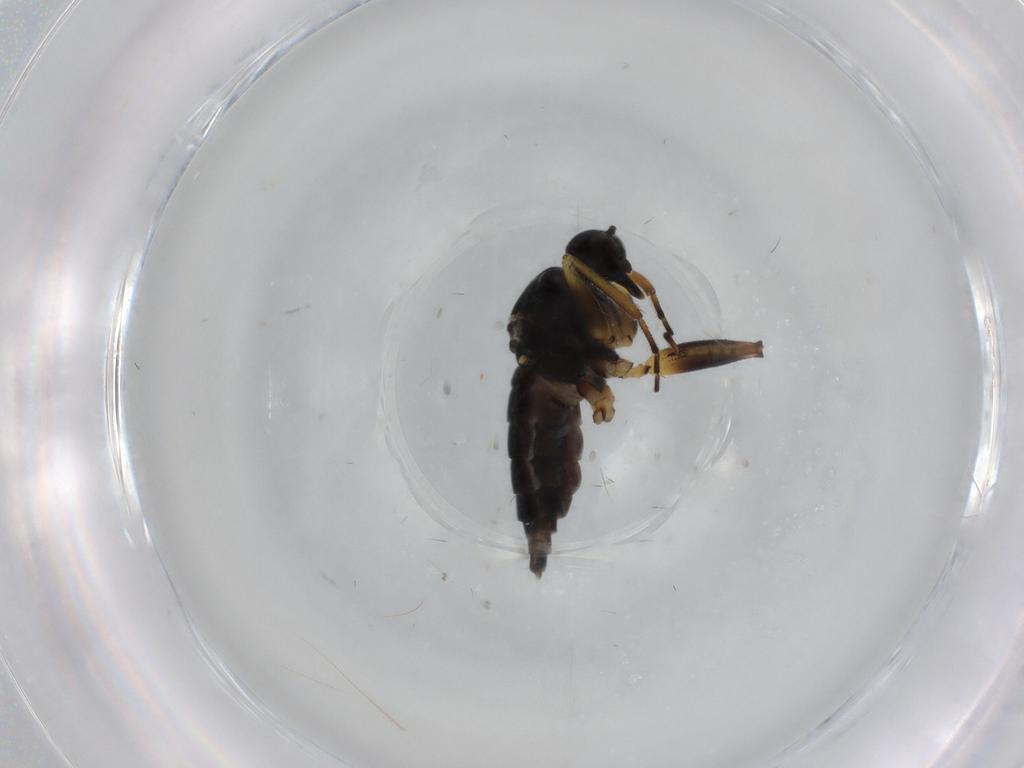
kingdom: Animalia
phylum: Arthropoda
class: Insecta
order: Diptera
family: Hybotidae
